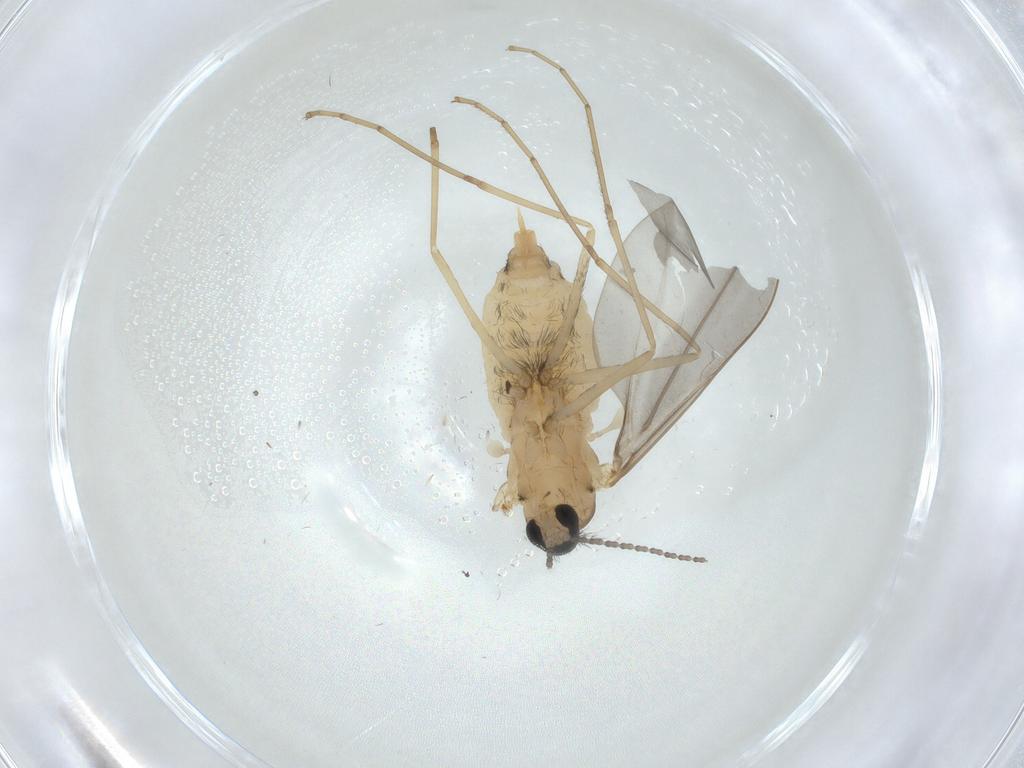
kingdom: Animalia
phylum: Arthropoda
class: Insecta
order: Diptera
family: Cecidomyiidae
